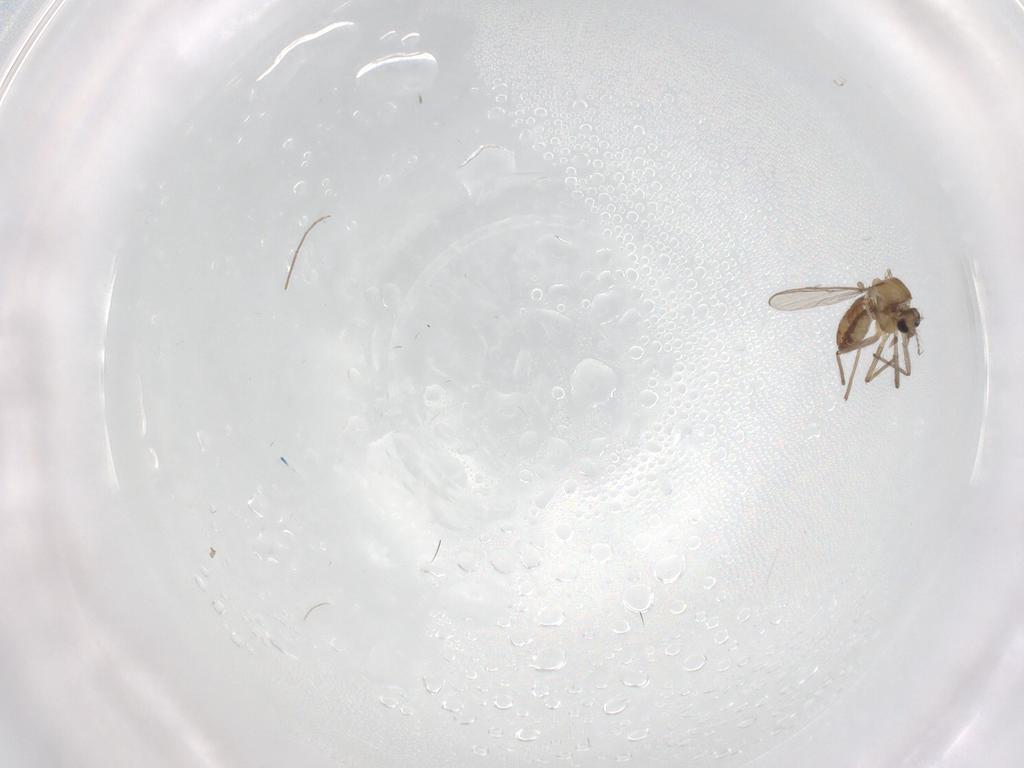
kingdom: Animalia
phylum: Arthropoda
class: Insecta
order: Diptera
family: Chironomidae
